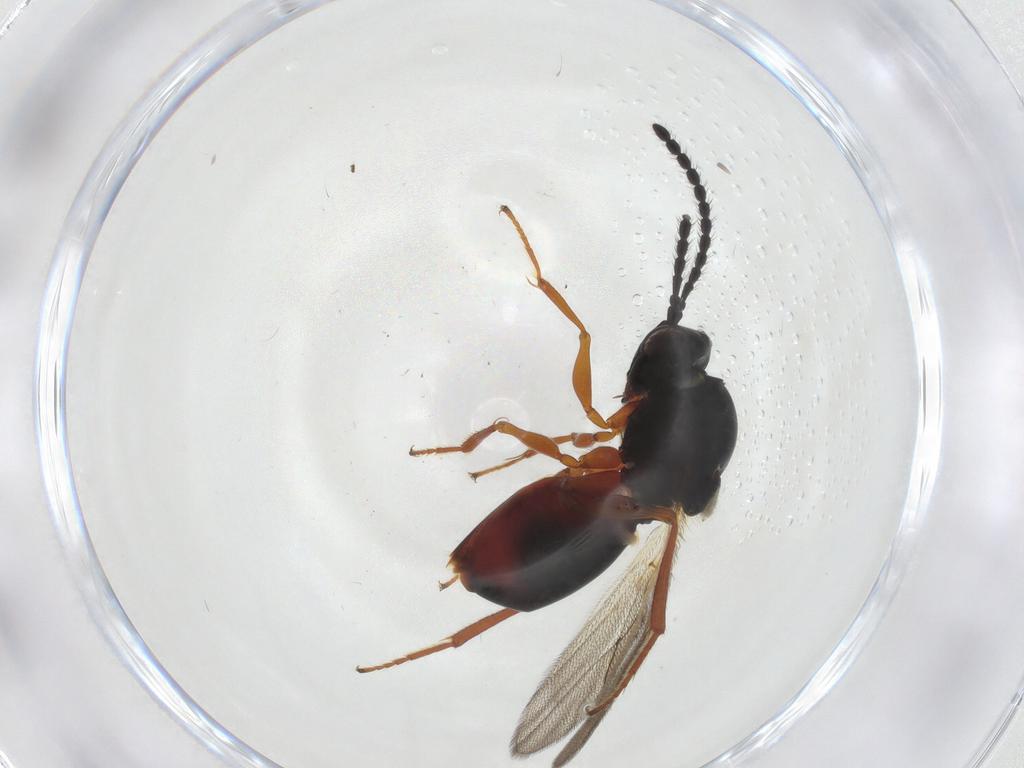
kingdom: Animalia
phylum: Arthropoda
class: Insecta
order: Hymenoptera
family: Figitidae
